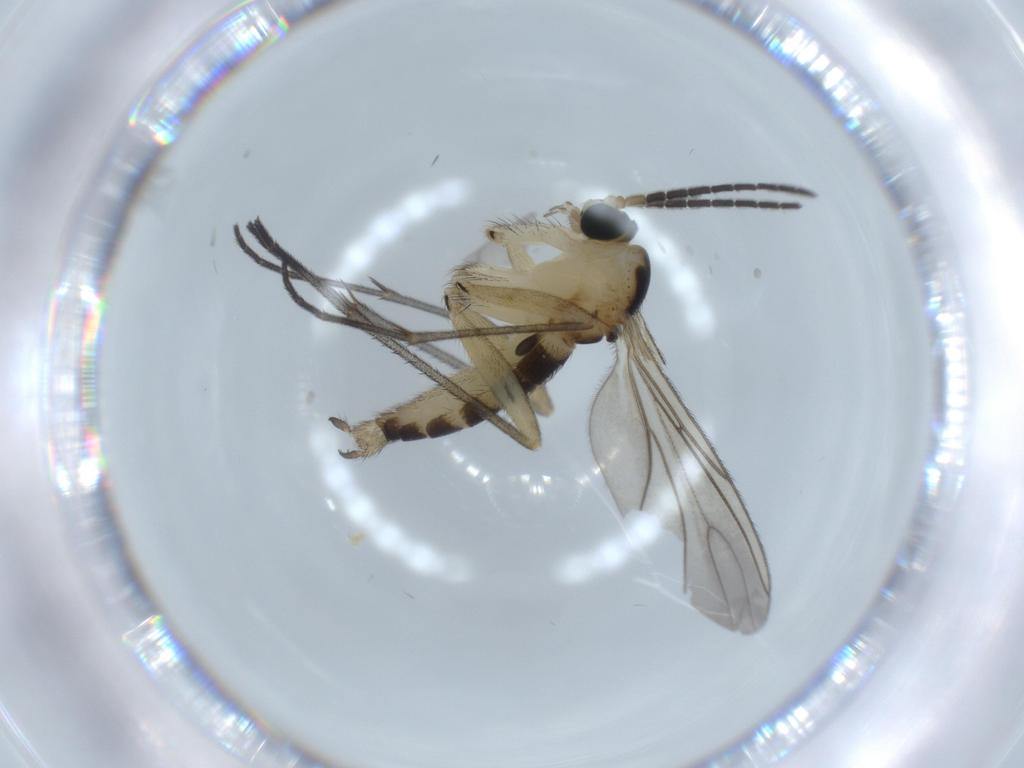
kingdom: Animalia
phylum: Arthropoda
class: Insecta
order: Diptera
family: Sciaridae
